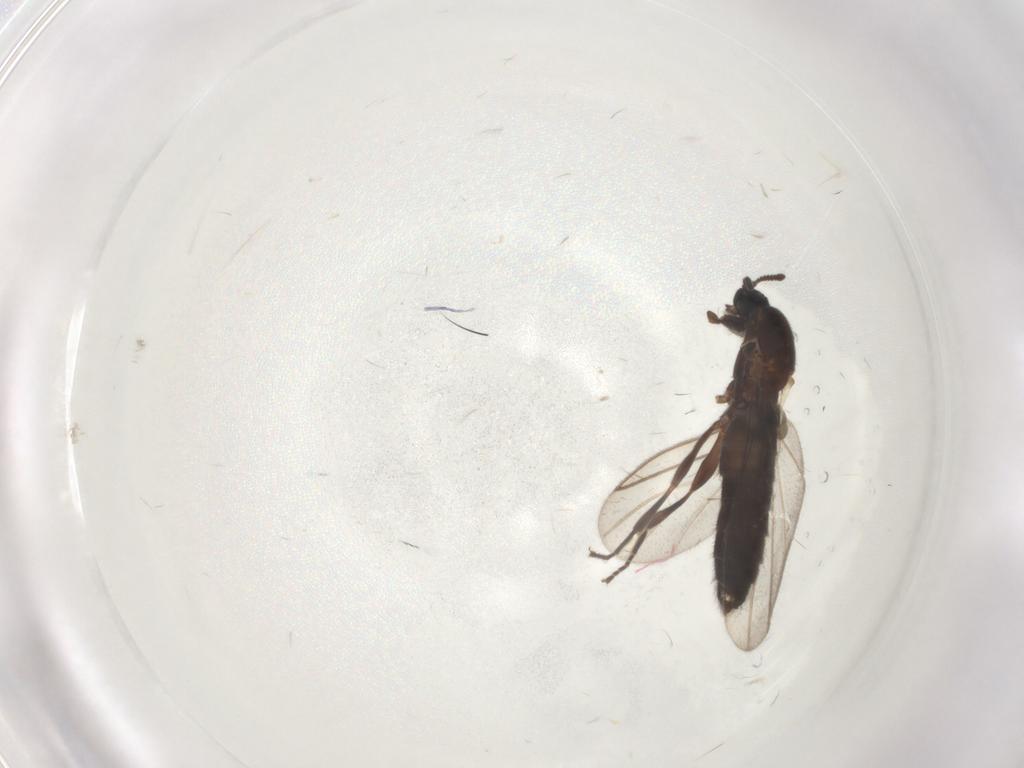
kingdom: Animalia
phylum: Arthropoda
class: Insecta
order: Diptera
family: Scatopsidae
